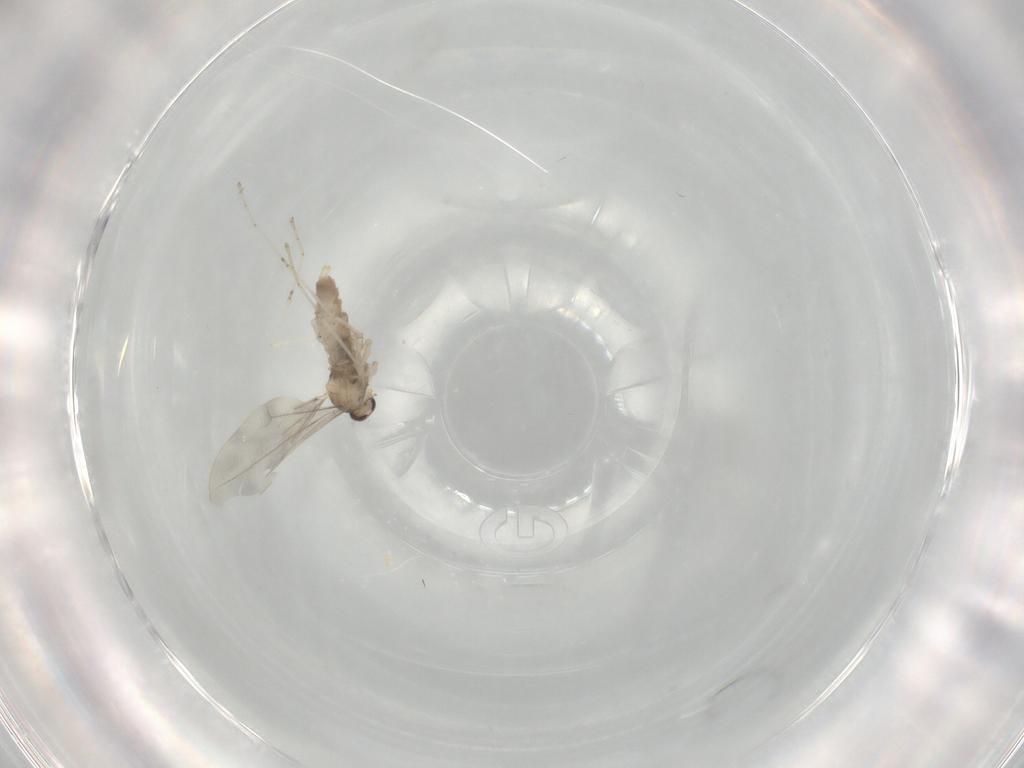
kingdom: Animalia
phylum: Arthropoda
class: Insecta
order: Diptera
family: Cecidomyiidae
